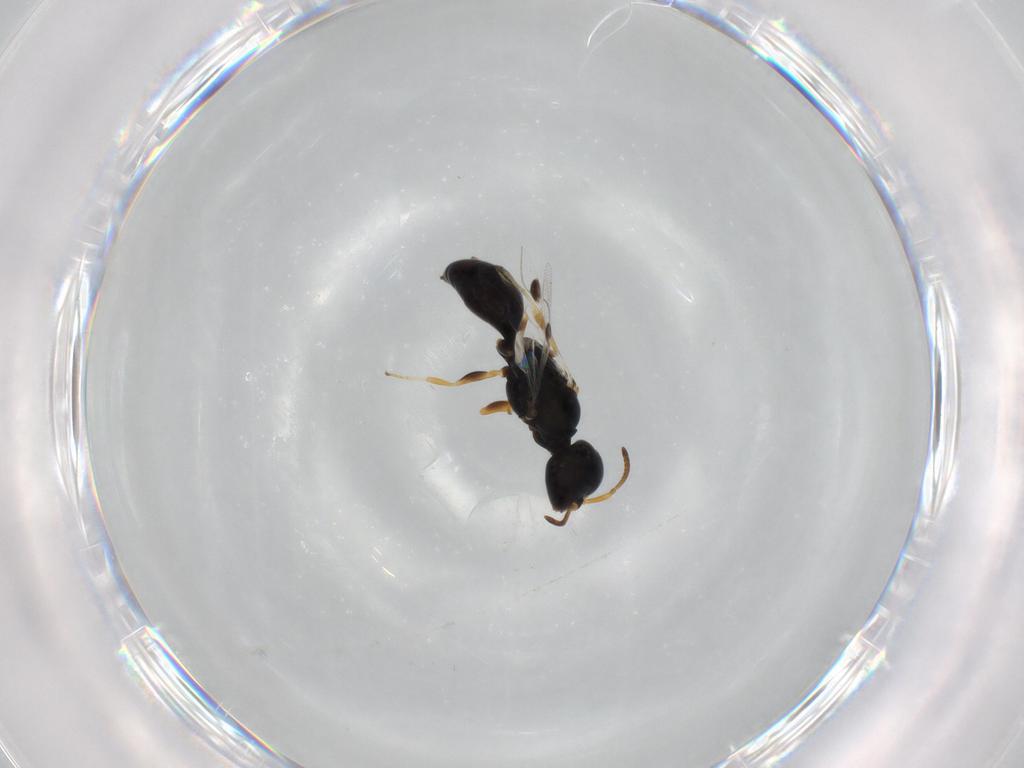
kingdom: Animalia
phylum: Arthropoda
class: Insecta
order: Hymenoptera
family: Pemphredonidae
